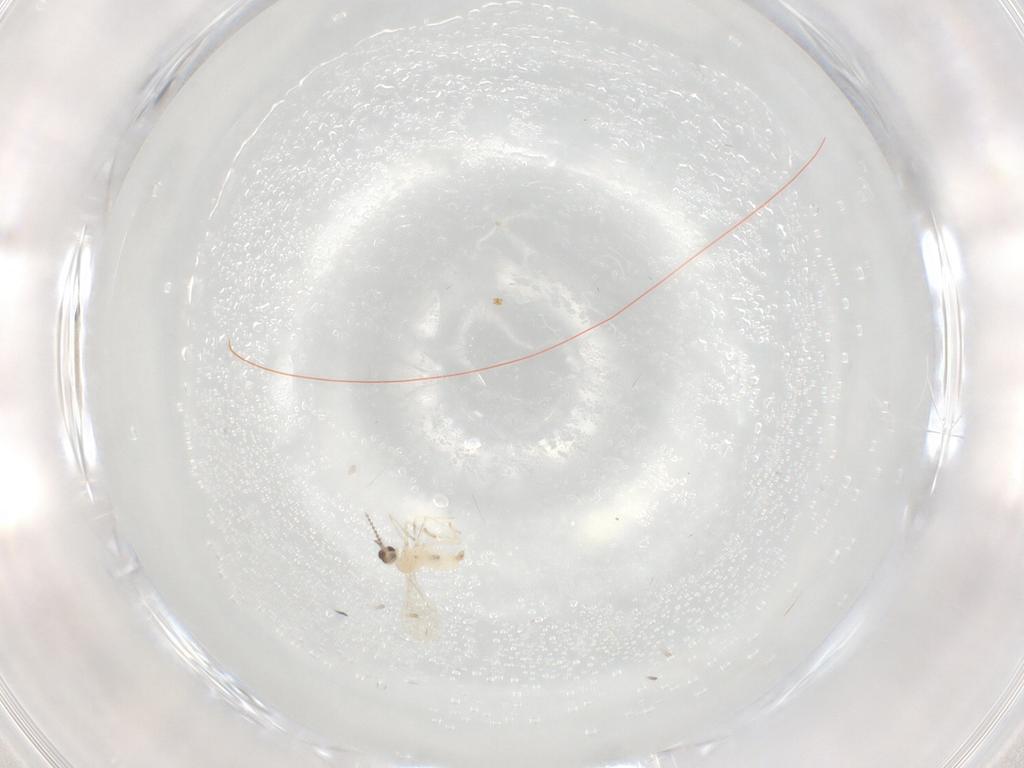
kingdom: Animalia
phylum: Arthropoda
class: Insecta
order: Diptera
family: Cecidomyiidae
